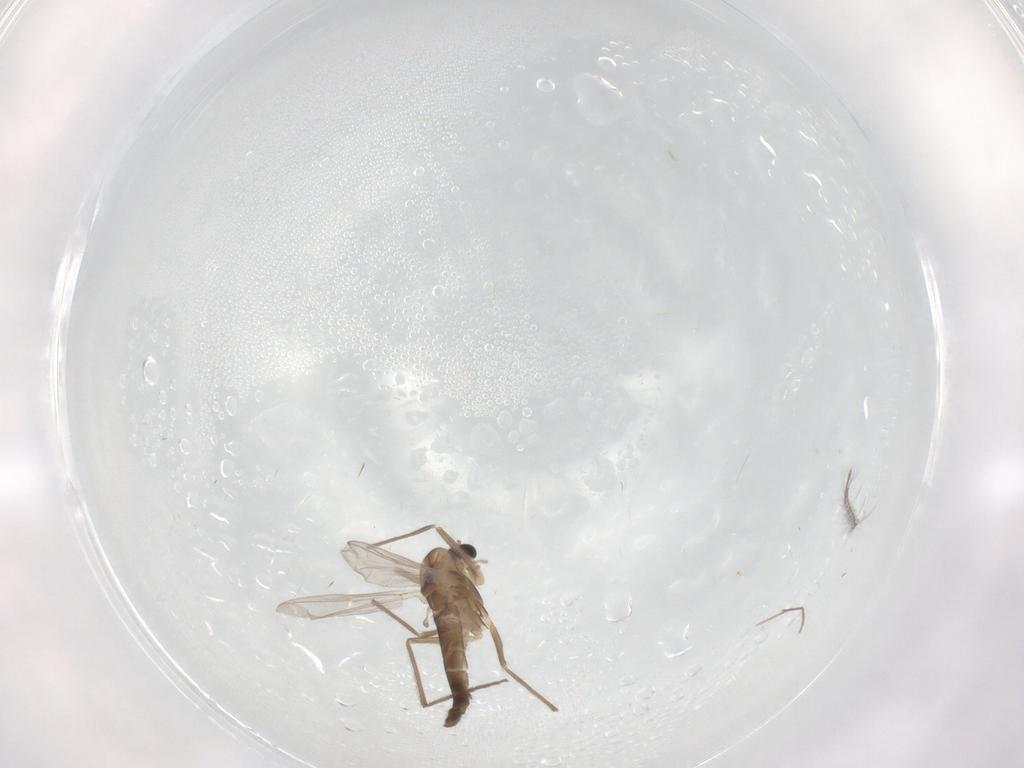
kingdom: Animalia
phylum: Arthropoda
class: Insecta
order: Diptera
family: Chironomidae
